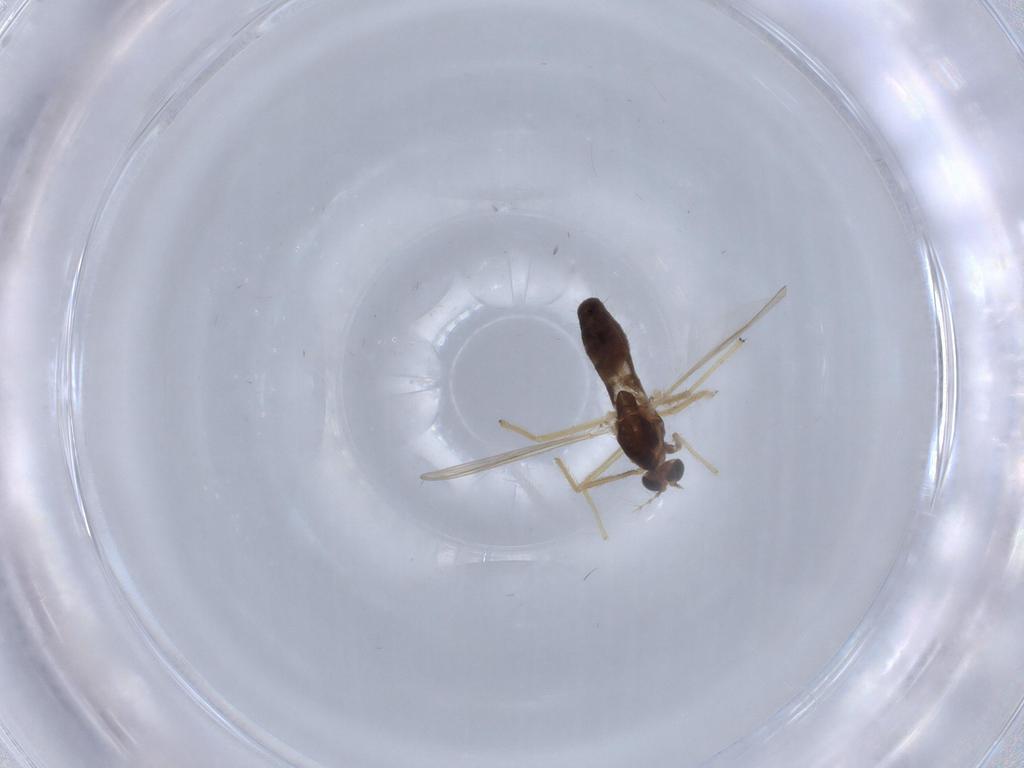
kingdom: Animalia
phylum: Arthropoda
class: Insecta
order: Diptera
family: Chironomidae
